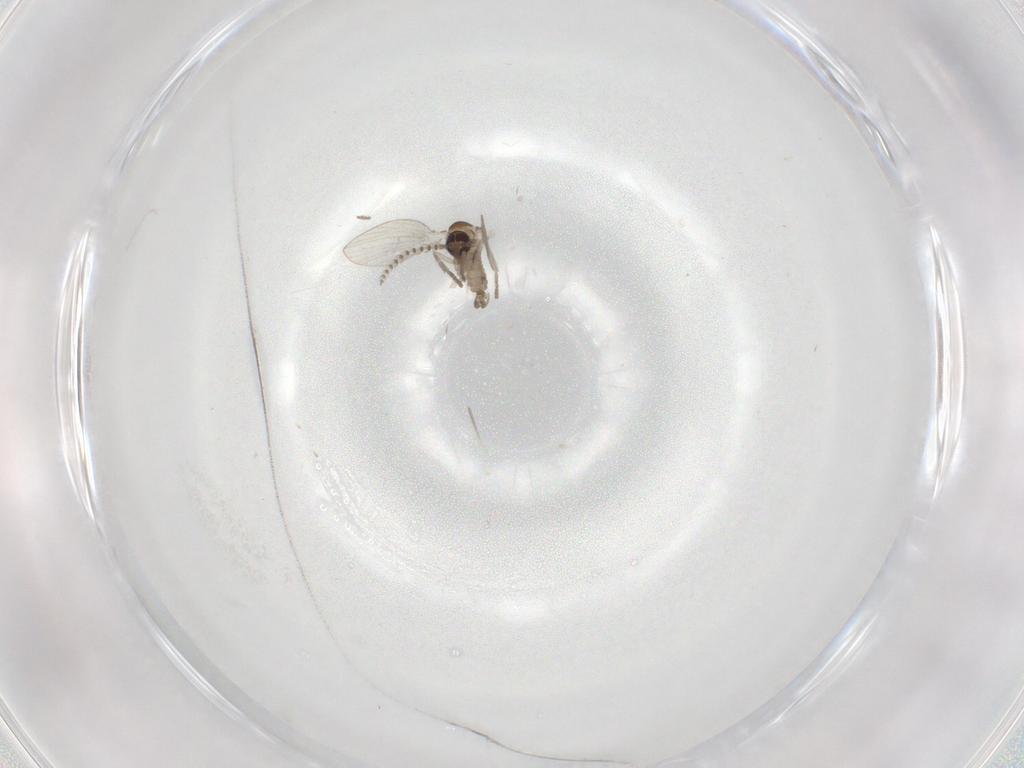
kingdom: Animalia
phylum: Arthropoda
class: Insecta
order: Diptera
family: Psychodidae
